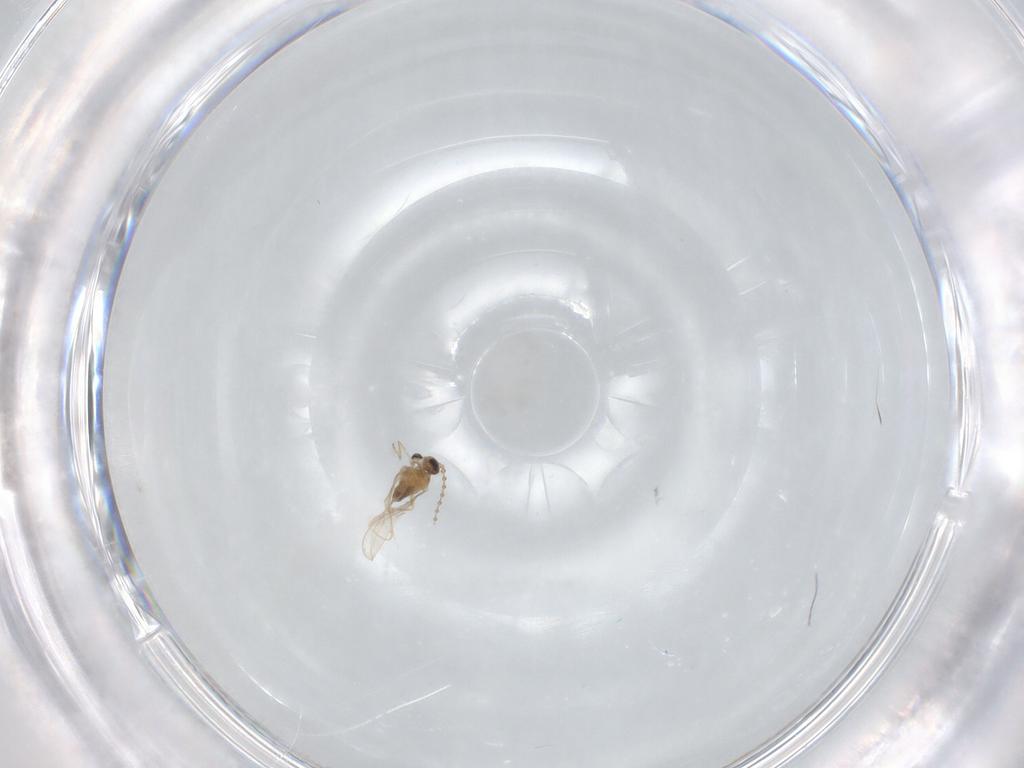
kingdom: Animalia
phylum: Arthropoda
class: Insecta
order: Diptera
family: Cecidomyiidae
